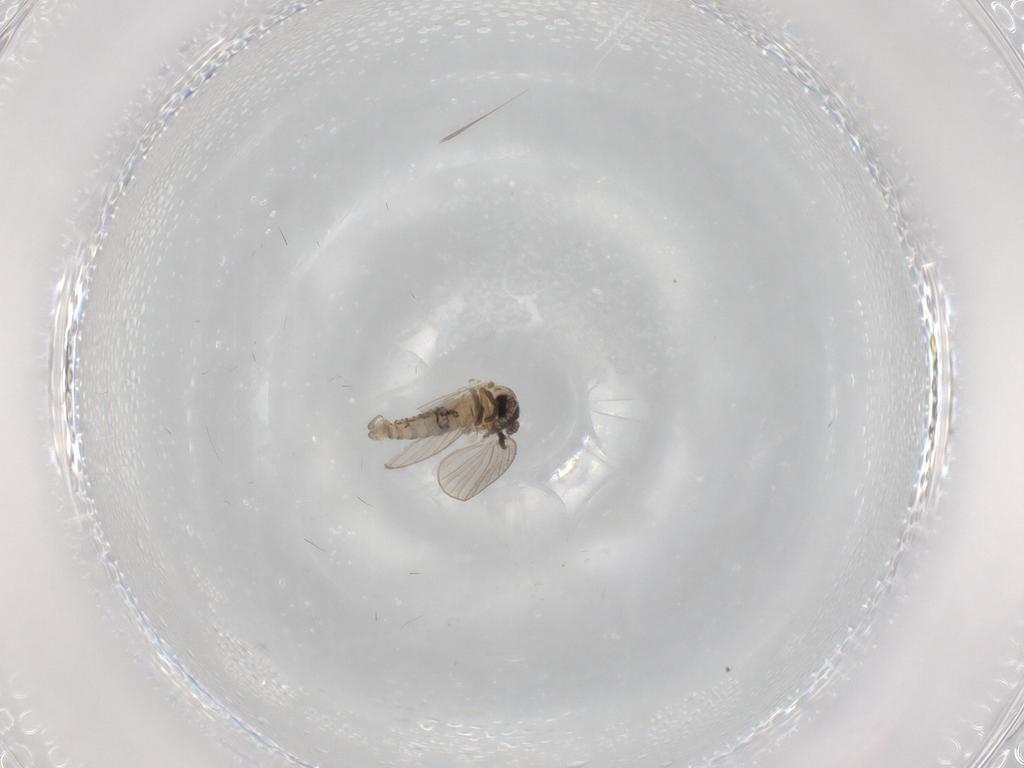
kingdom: Animalia
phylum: Arthropoda
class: Insecta
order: Diptera
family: Psychodidae
